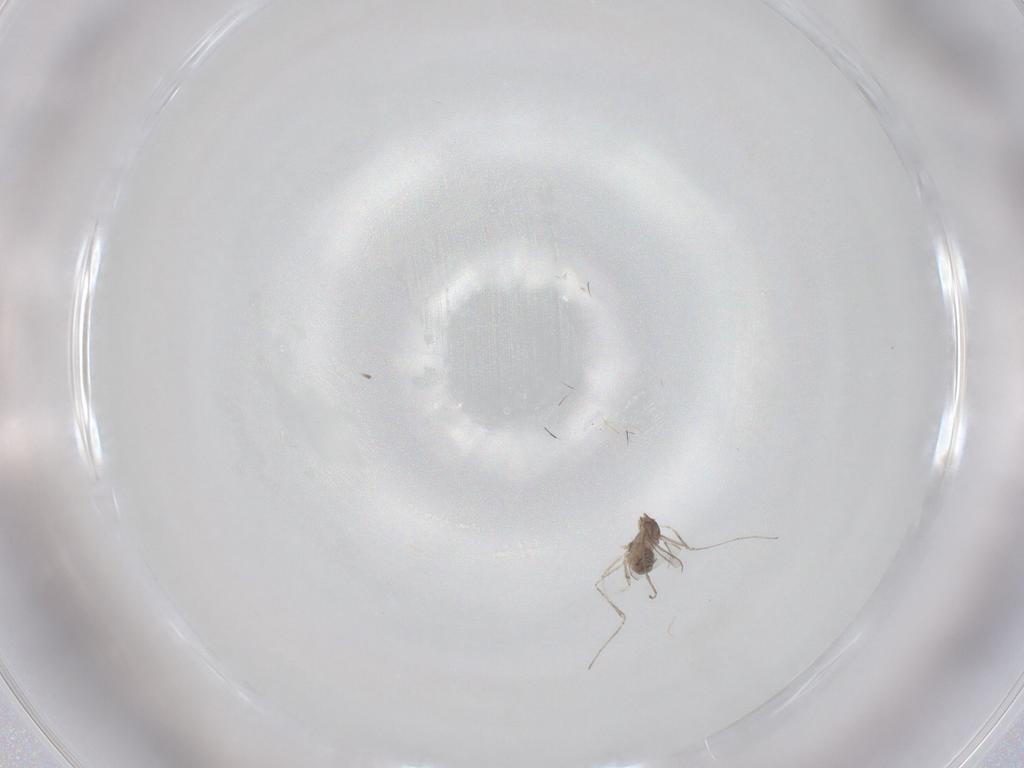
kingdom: Animalia
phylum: Arthropoda
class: Insecta
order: Diptera
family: Cecidomyiidae
